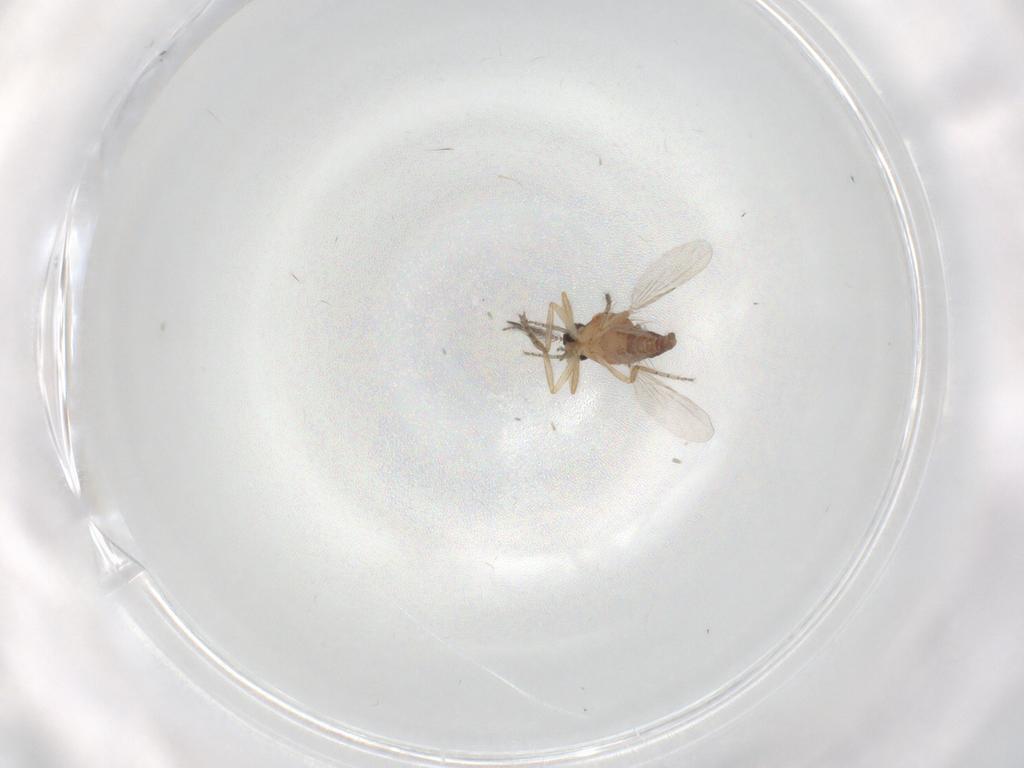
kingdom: Animalia
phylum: Arthropoda
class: Insecta
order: Diptera
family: Ceratopogonidae
